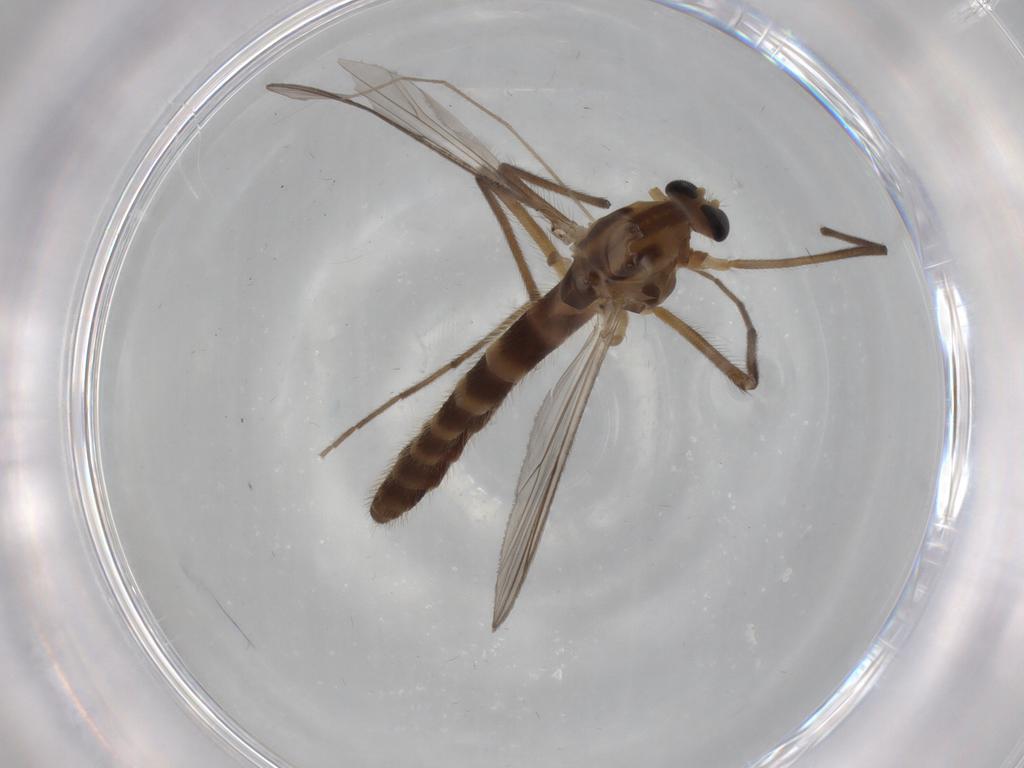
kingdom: Animalia
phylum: Arthropoda
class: Insecta
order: Diptera
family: Chironomidae
